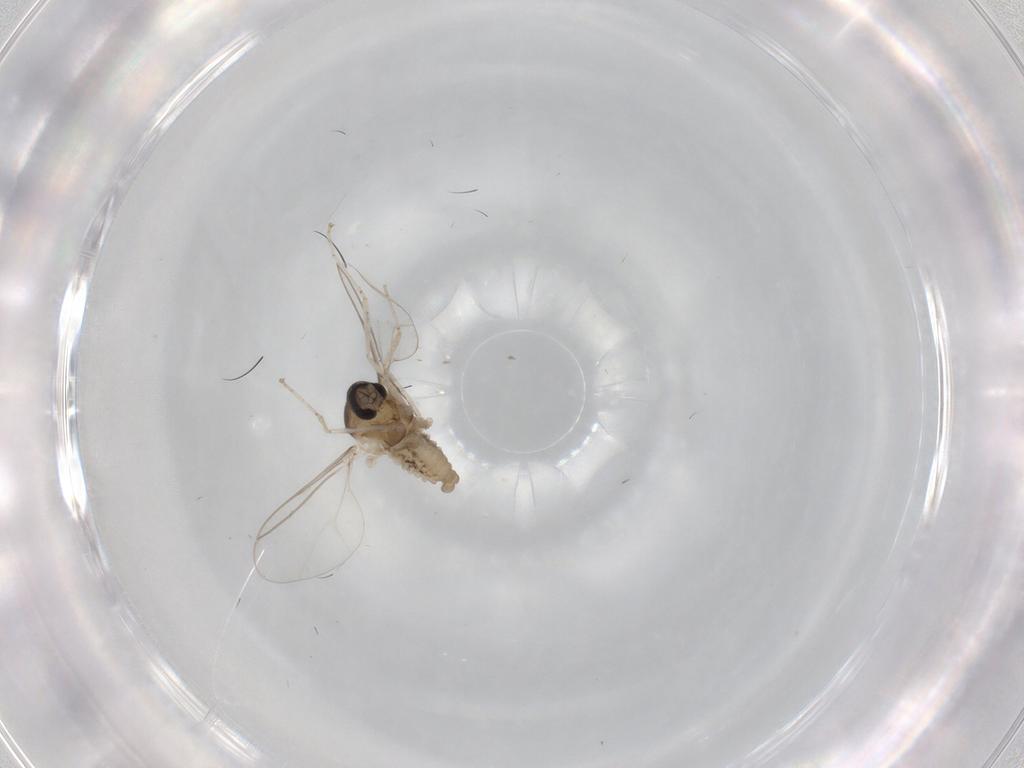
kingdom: Animalia
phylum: Arthropoda
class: Insecta
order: Diptera
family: Cecidomyiidae
